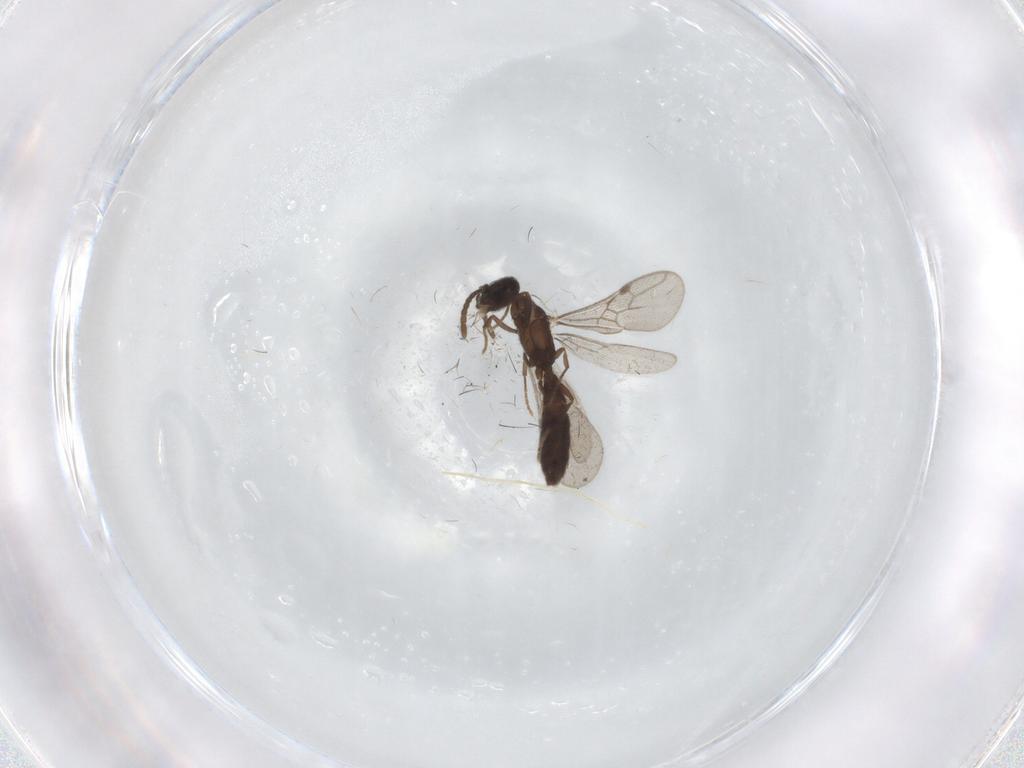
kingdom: Animalia
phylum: Arthropoda
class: Insecta
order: Hymenoptera
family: Formicidae
